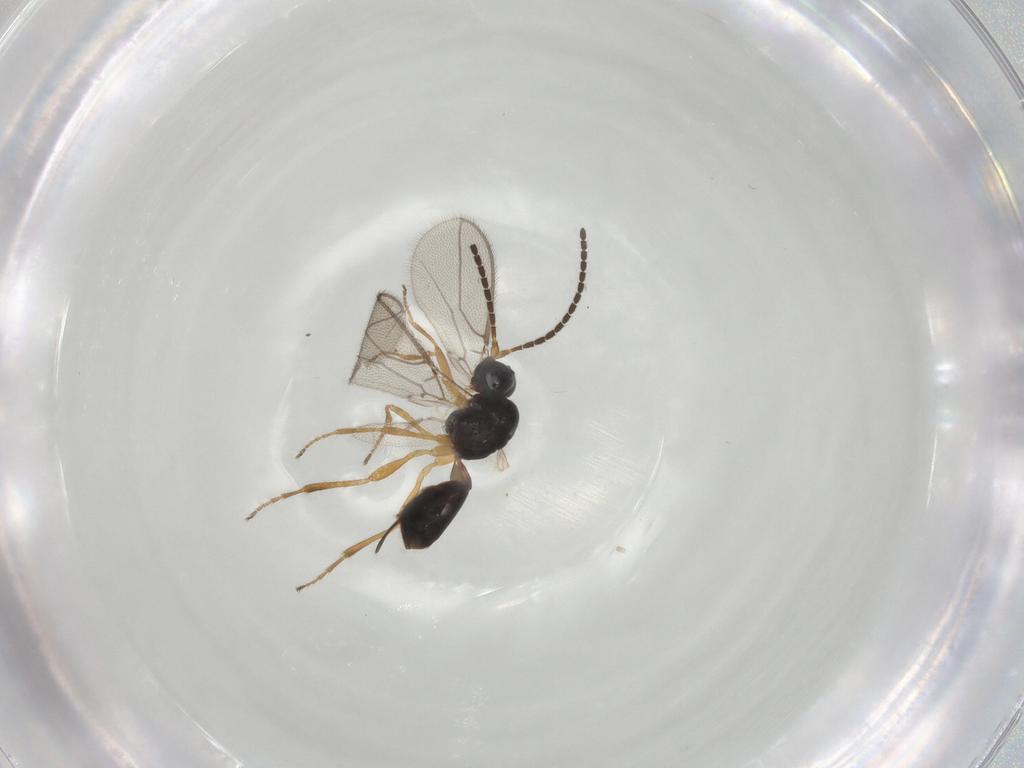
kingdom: Animalia
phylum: Arthropoda
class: Insecta
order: Hymenoptera
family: Braconidae
